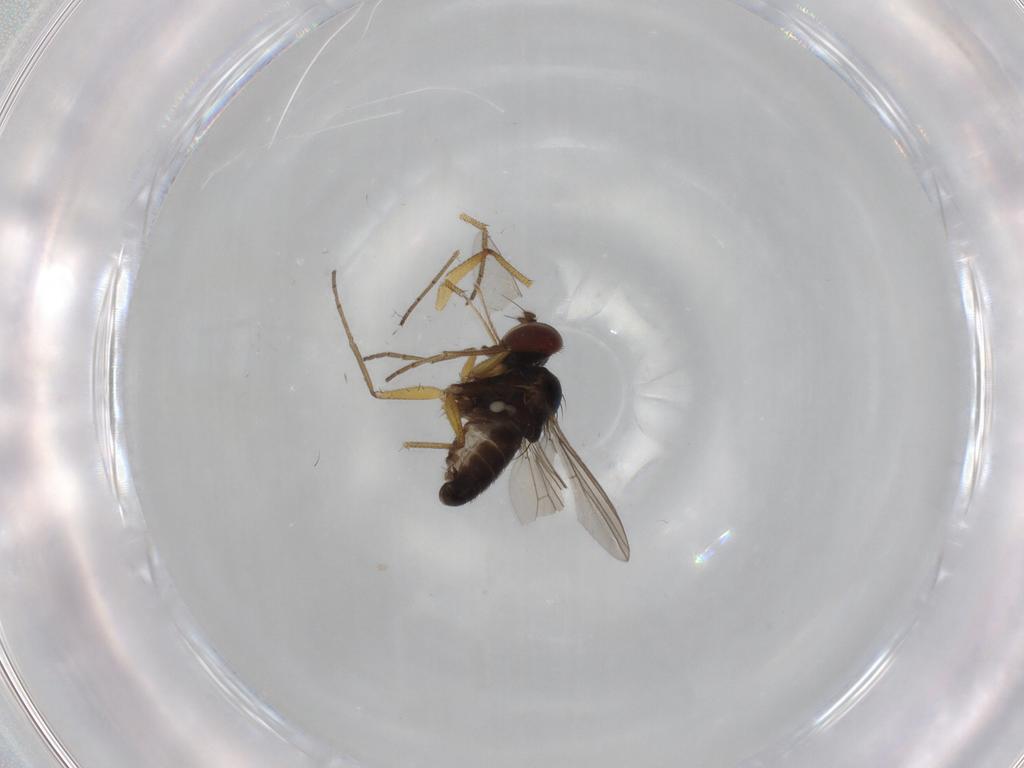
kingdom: Animalia
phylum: Arthropoda
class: Insecta
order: Diptera
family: Dolichopodidae
